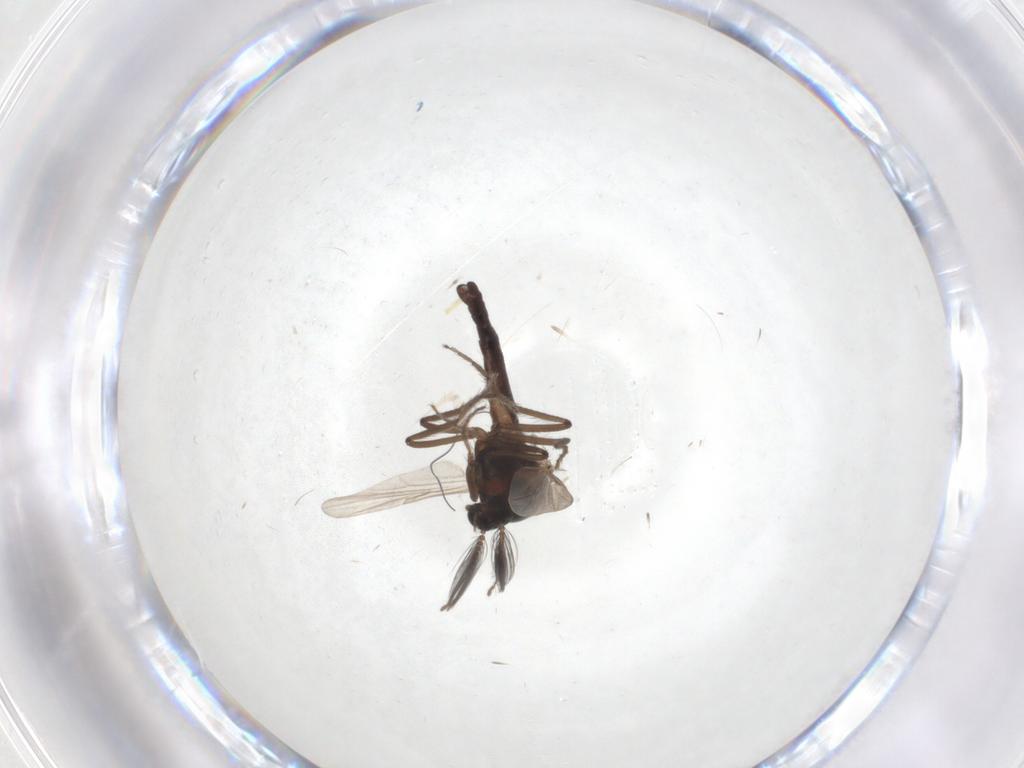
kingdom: Animalia
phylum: Arthropoda
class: Insecta
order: Diptera
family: Ceratopogonidae
